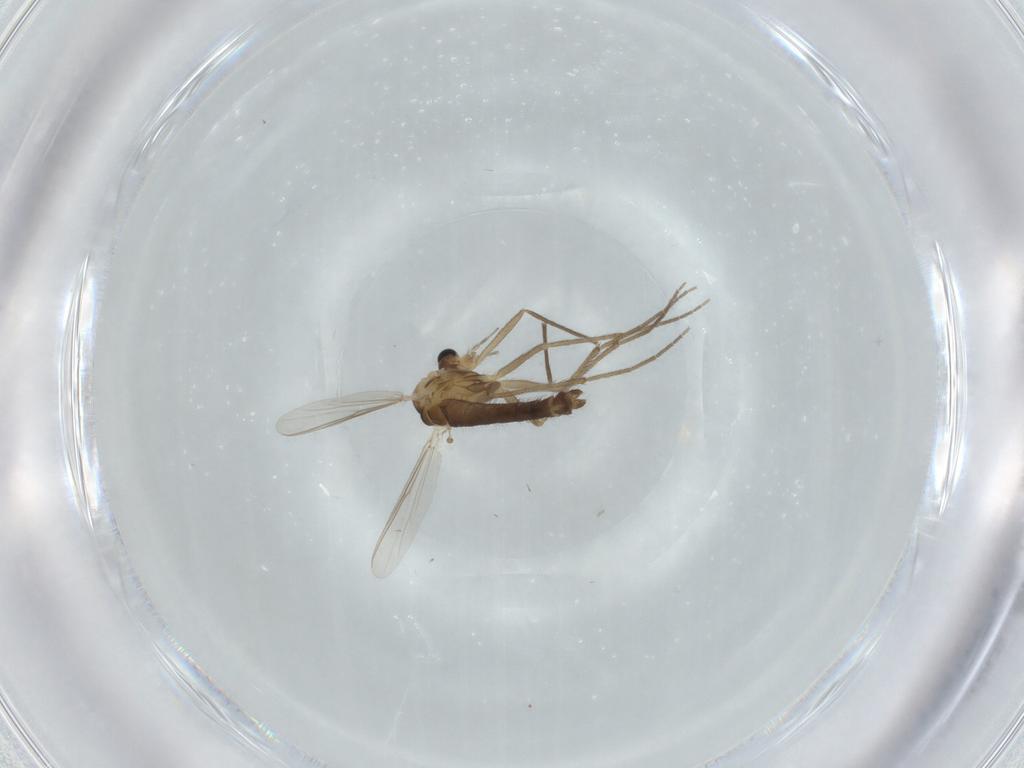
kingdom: Animalia
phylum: Arthropoda
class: Insecta
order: Diptera
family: Chironomidae
